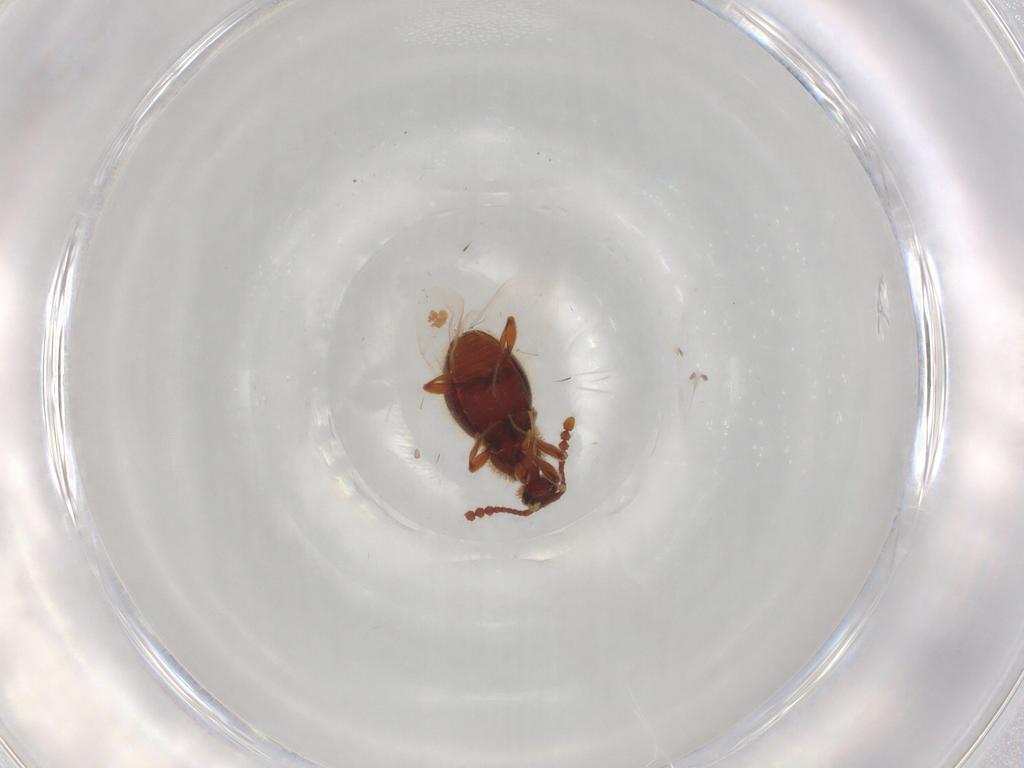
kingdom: Animalia
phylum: Arthropoda
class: Insecta
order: Coleoptera
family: Staphylinidae
